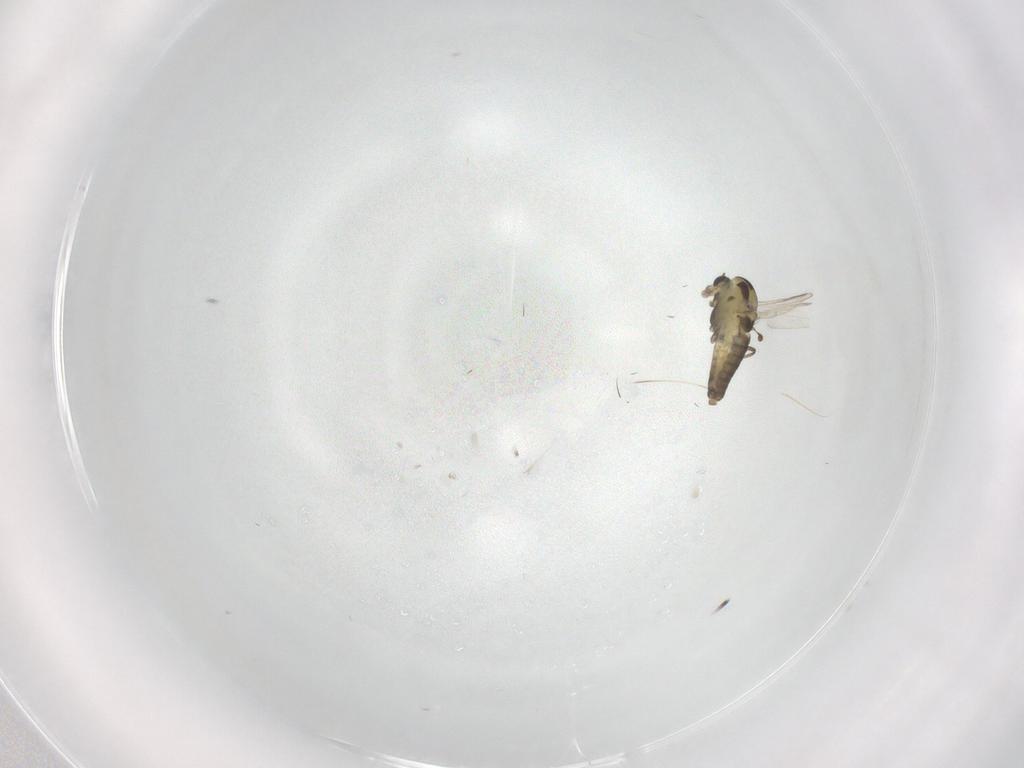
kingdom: Animalia
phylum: Arthropoda
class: Insecta
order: Diptera
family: Chironomidae
